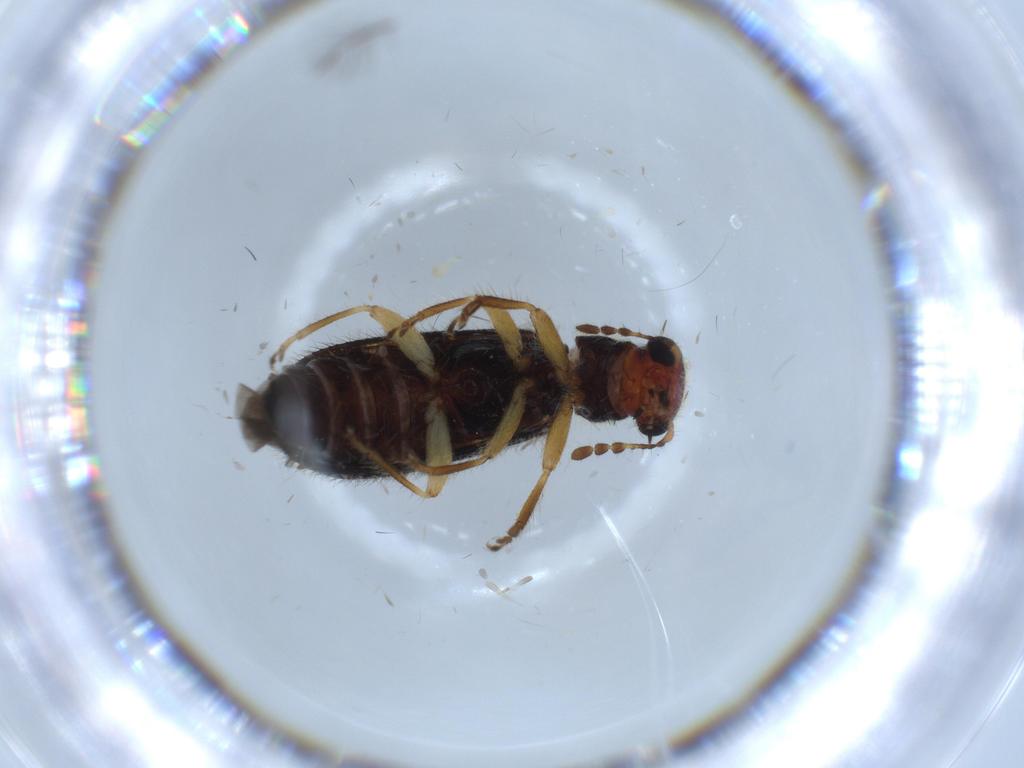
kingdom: Animalia
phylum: Arthropoda
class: Insecta
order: Coleoptera
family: Cleridae
